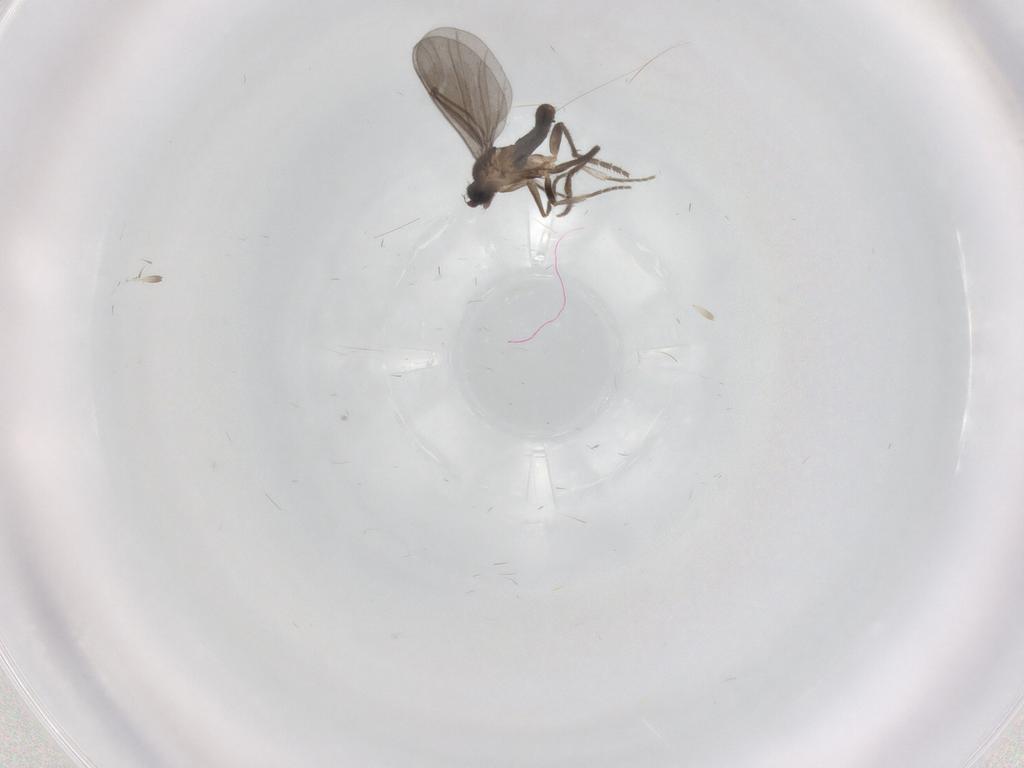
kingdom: Animalia
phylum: Arthropoda
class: Insecta
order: Diptera
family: Phoridae
